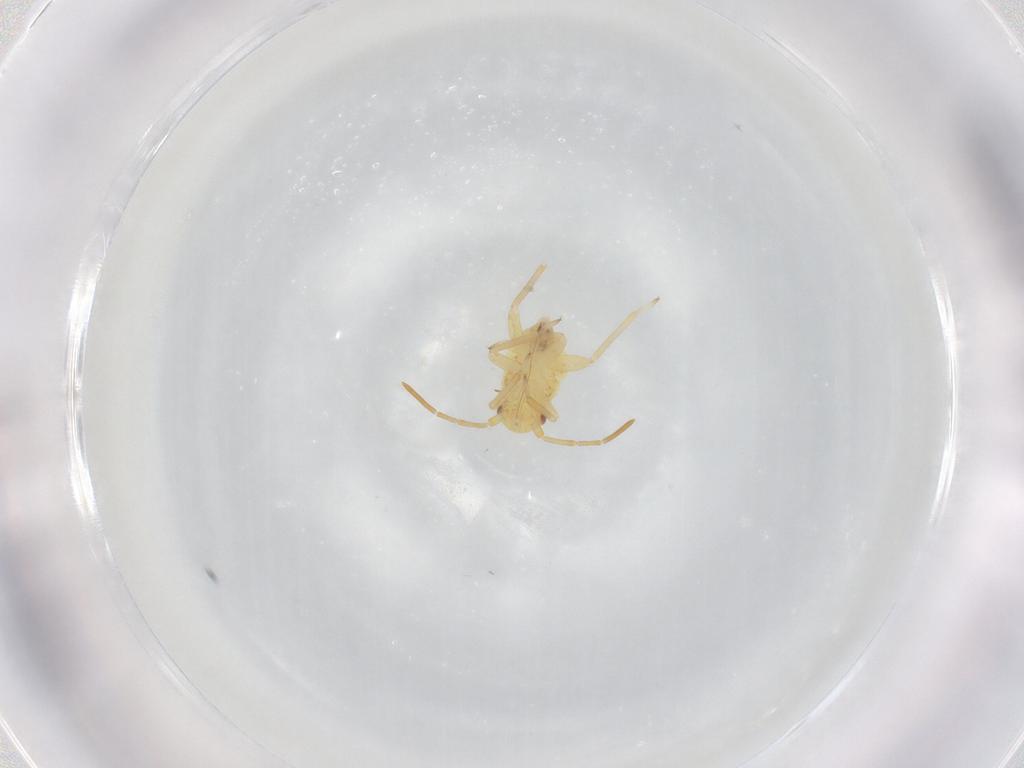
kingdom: Animalia
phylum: Arthropoda
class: Insecta
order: Hemiptera
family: Miridae
